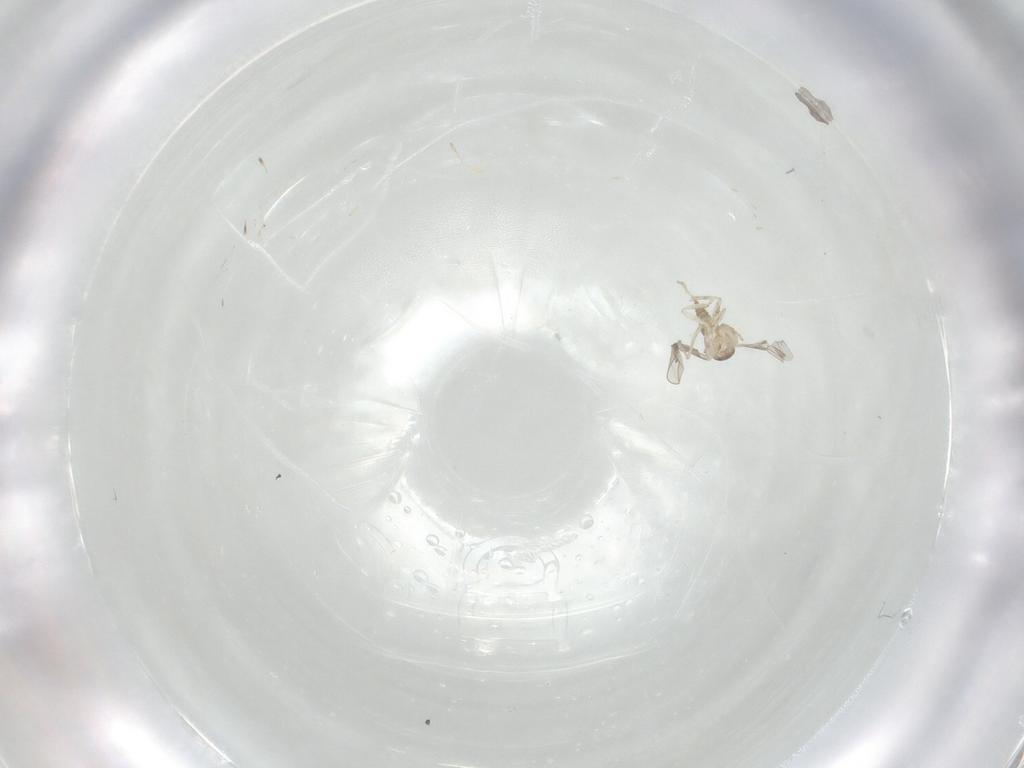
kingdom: Animalia
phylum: Arthropoda
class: Insecta
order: Diptera
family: Cecidomyiidae
